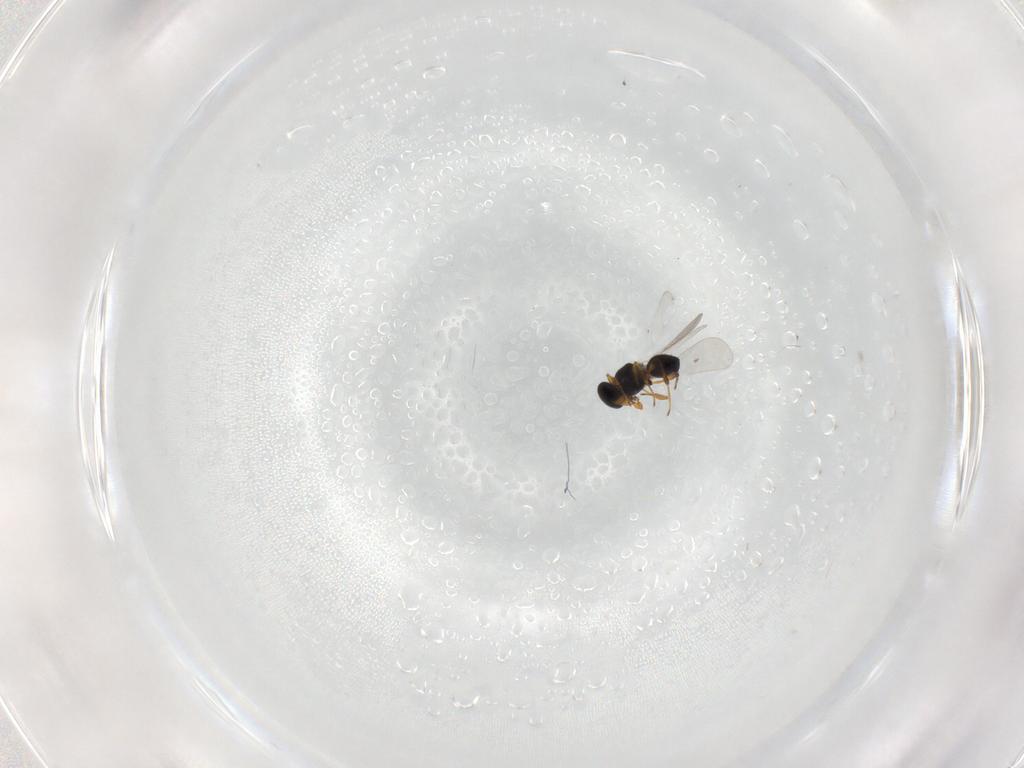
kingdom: Animalia
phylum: Arthropoda
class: Insecta
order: Hymenoptera
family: Platygastridae
